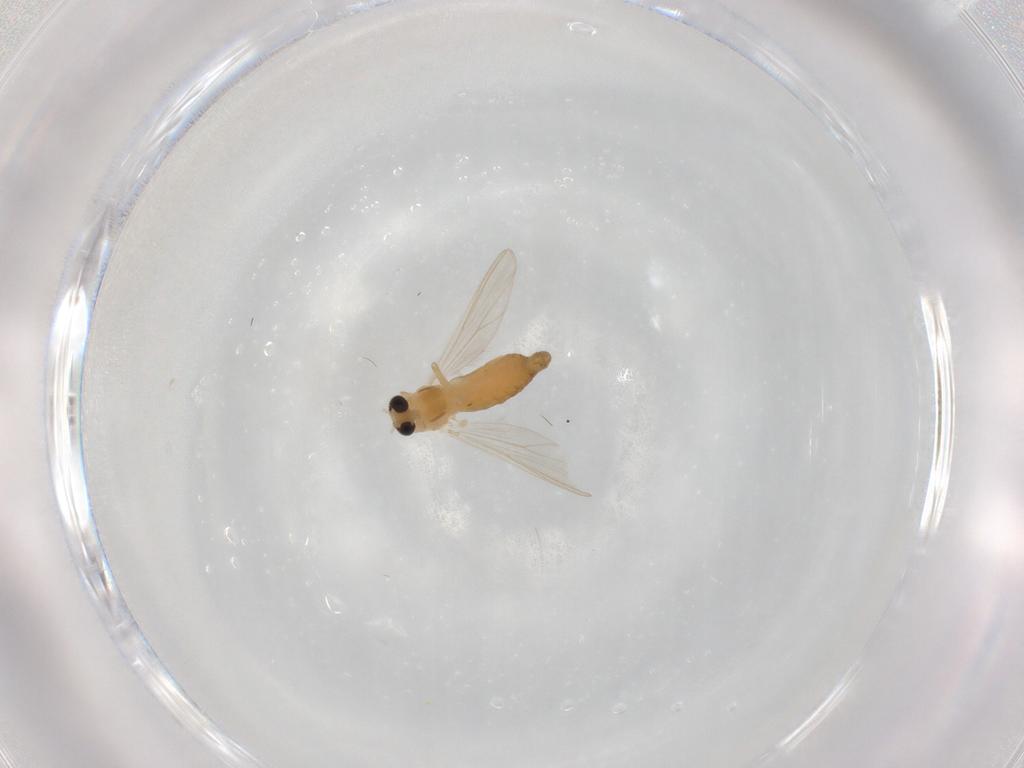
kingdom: Animalia
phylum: Arthropoda
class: Insecta
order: Diptera
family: Chironomidae
